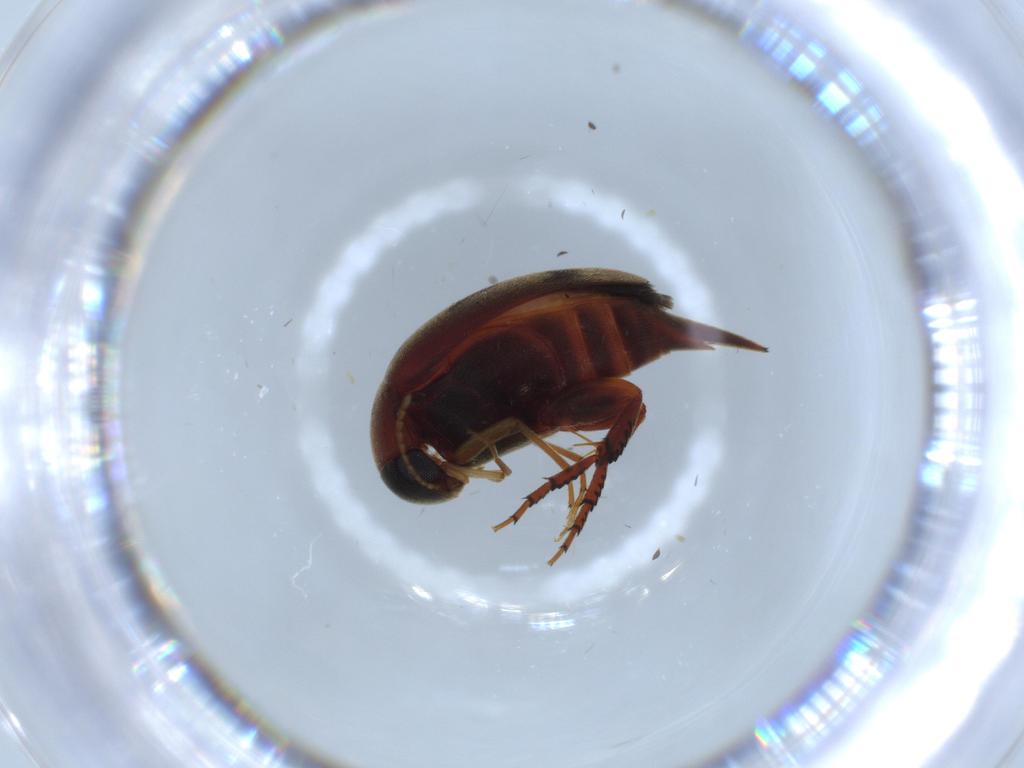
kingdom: Animalia
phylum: Arthropoda
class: Insecta
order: Coleoptera
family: Mordellidae
